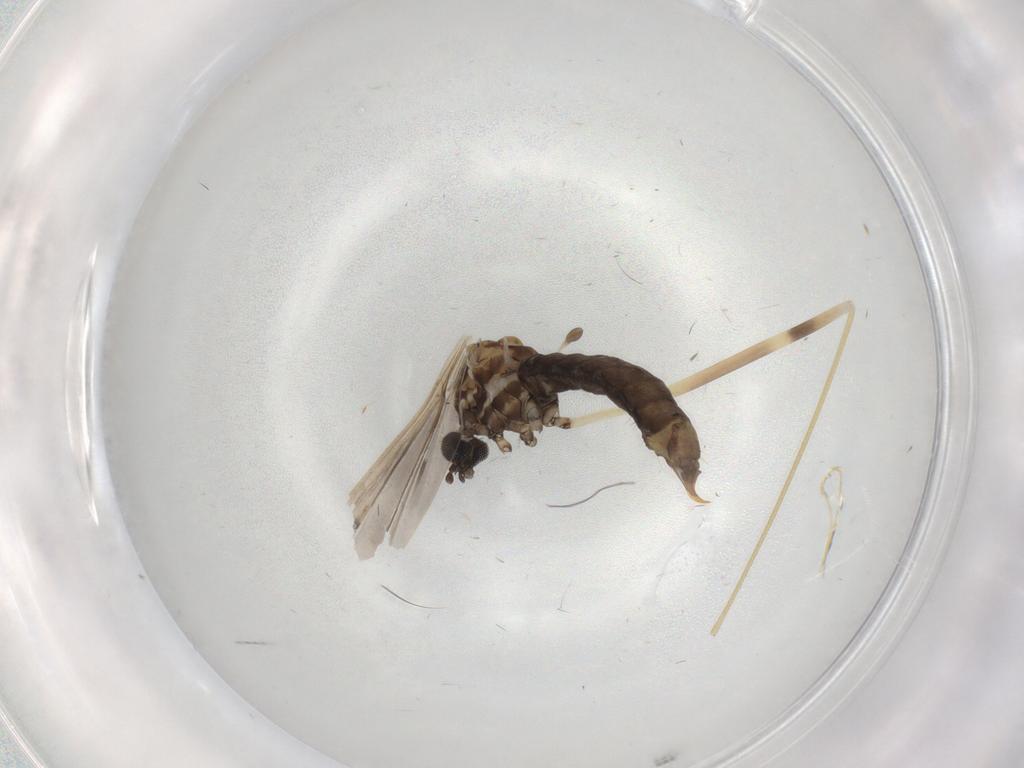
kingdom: Animalia
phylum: Arthropoda
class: Insecta
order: Diptera
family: Limoniidae
